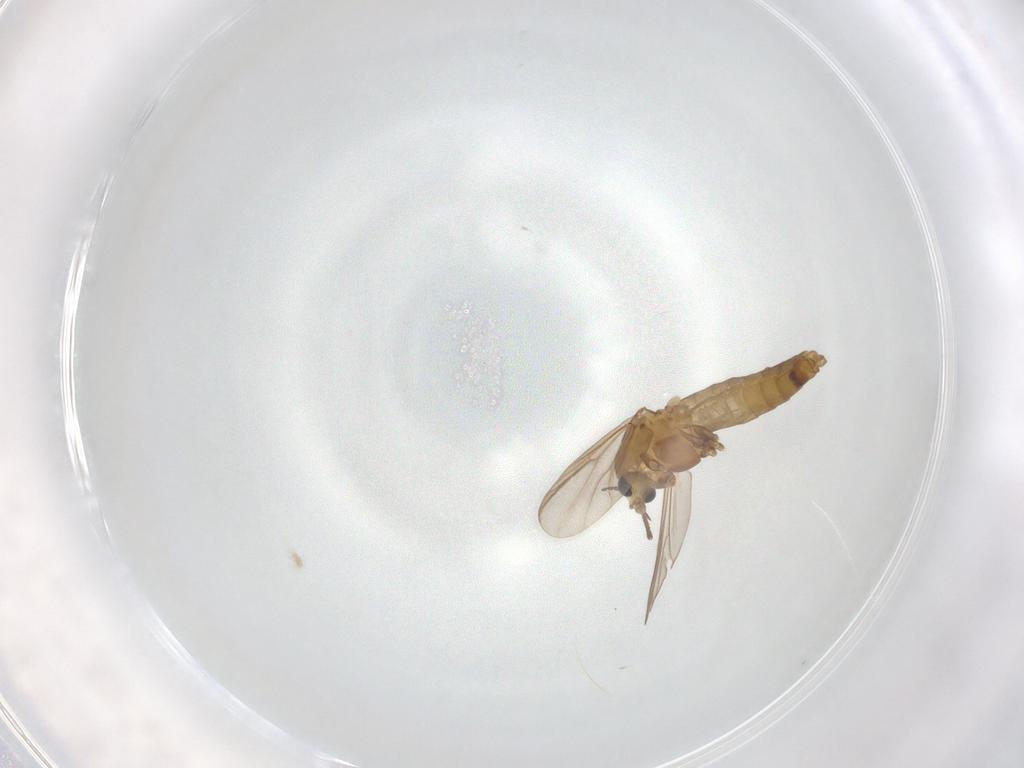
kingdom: Animalia
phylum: Arthropoda
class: Insecta
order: Diptera
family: Chironomidae
